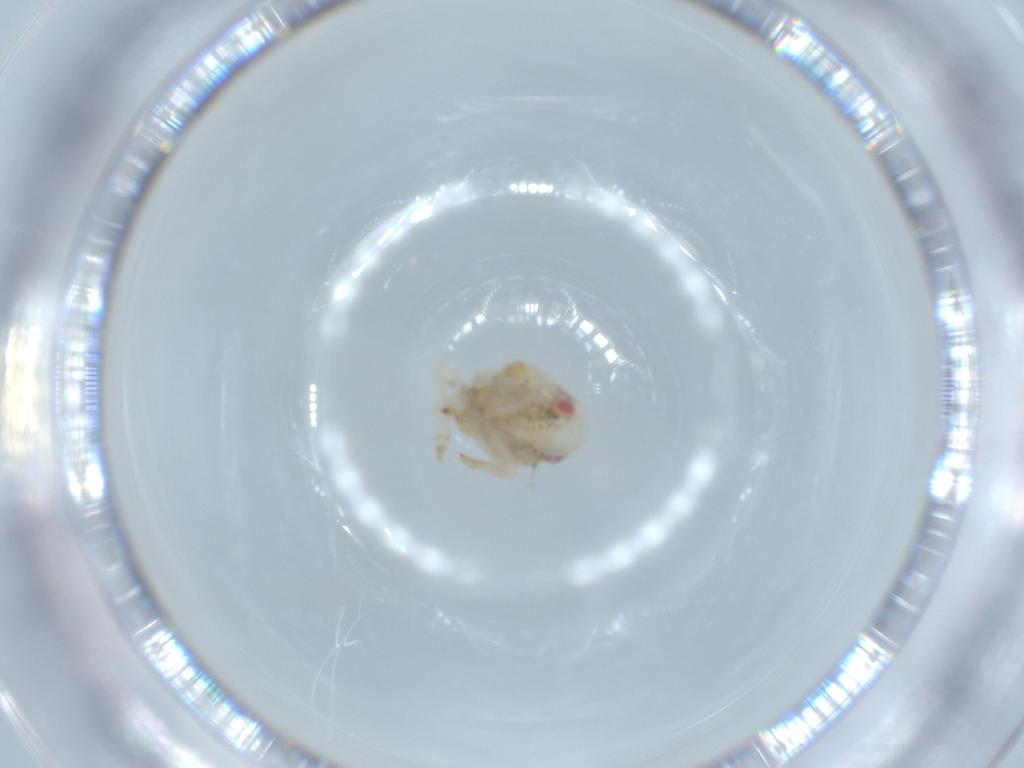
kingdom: Animalia
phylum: Arthropoda
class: Insecta
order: Hemiptera
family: Acanaloniidae
